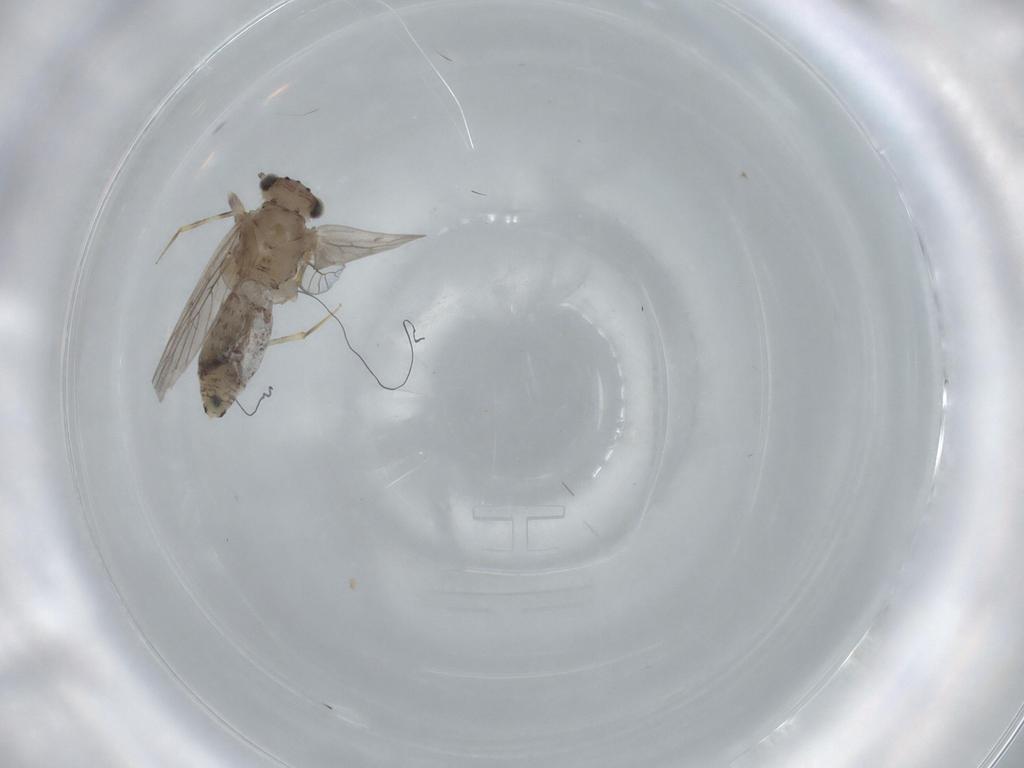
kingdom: Animalia
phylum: Arthropoda
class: Insecta
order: Psocodea
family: Lepidopsocidae
